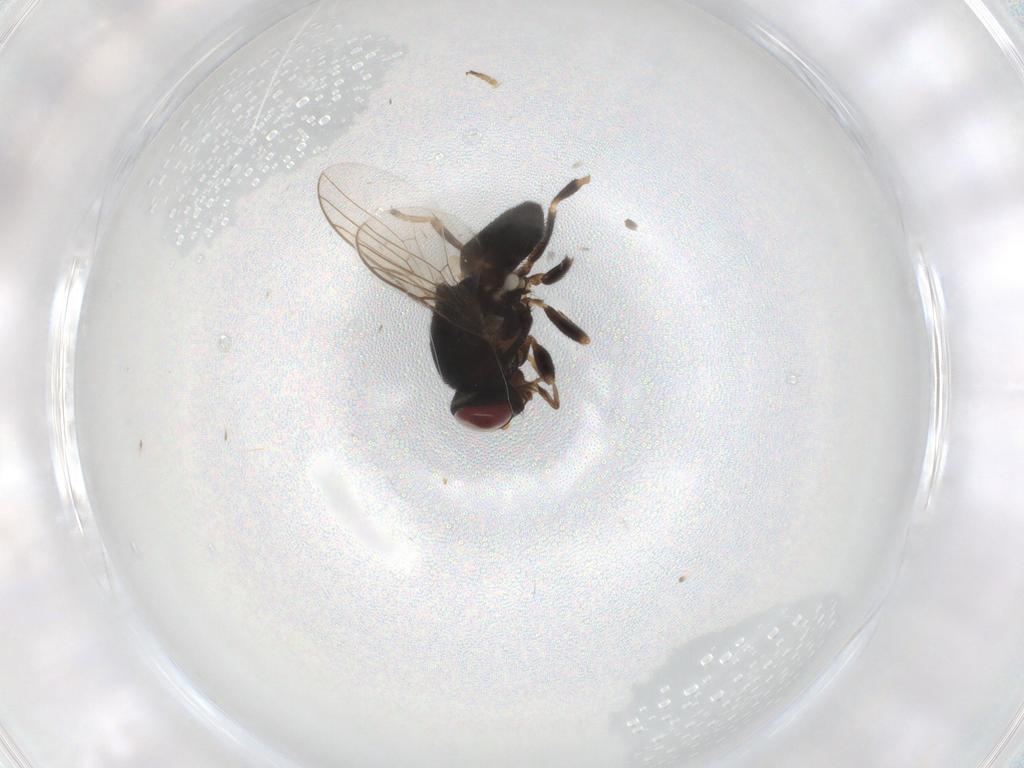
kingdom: Animalia
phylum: Arthropoda
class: Insecta
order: Diptera
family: Chloropidae
